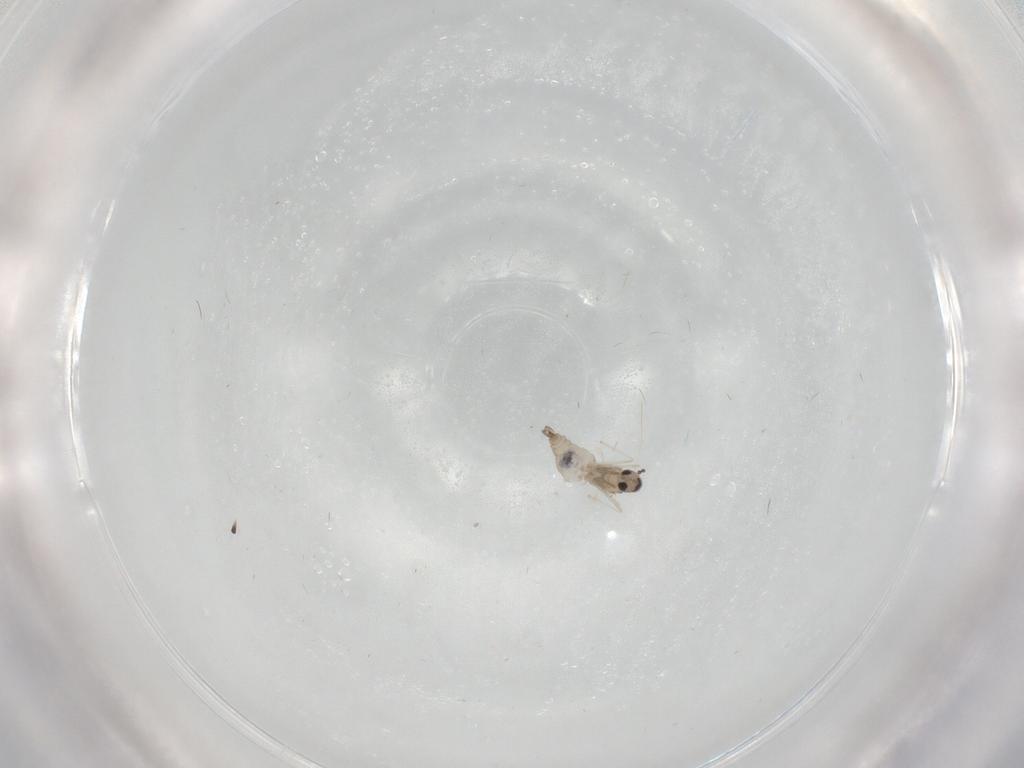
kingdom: Animalia
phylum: Arthropoda
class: Insecta
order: Diptera
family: Cecidomyiidae
